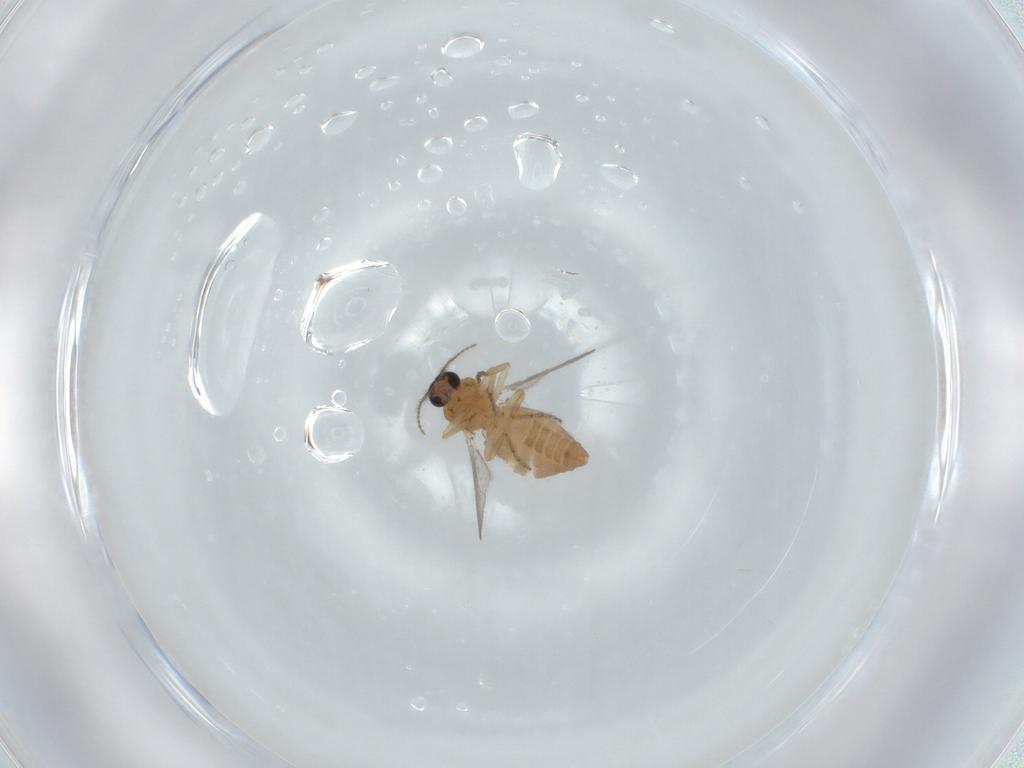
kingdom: Animalia
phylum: Arthropoda
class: Insecta
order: Diptera
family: Ceratopogonidae
